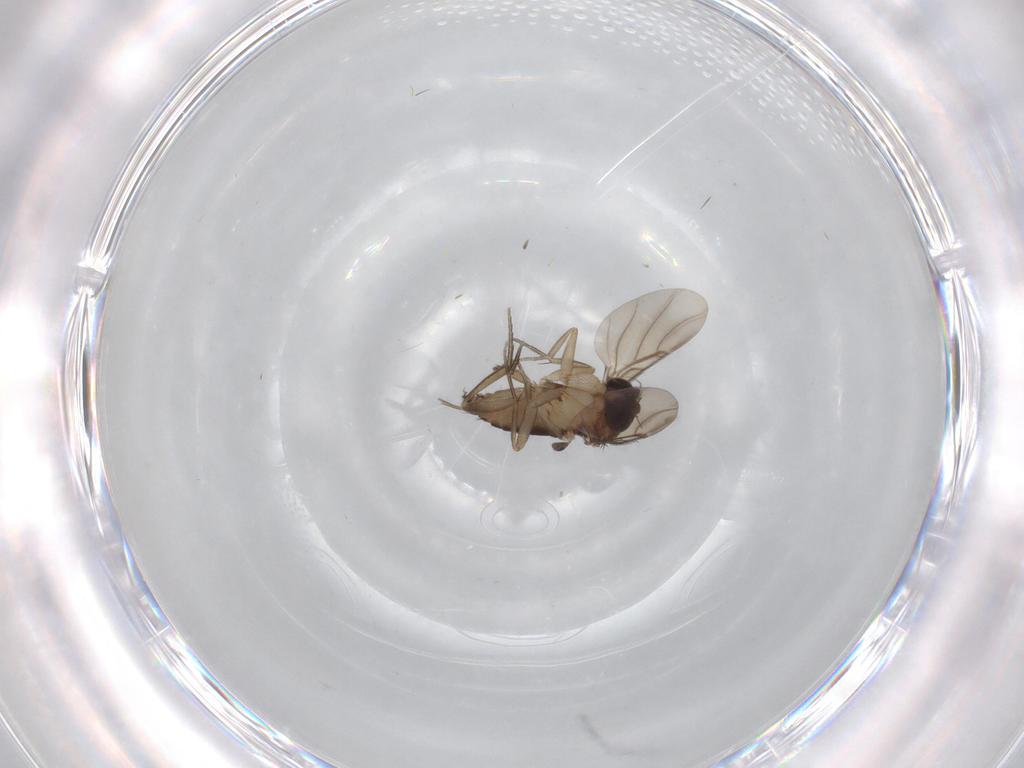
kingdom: Animalia
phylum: Arthropoda
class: Insecta
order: Diptera
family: Phoridae
